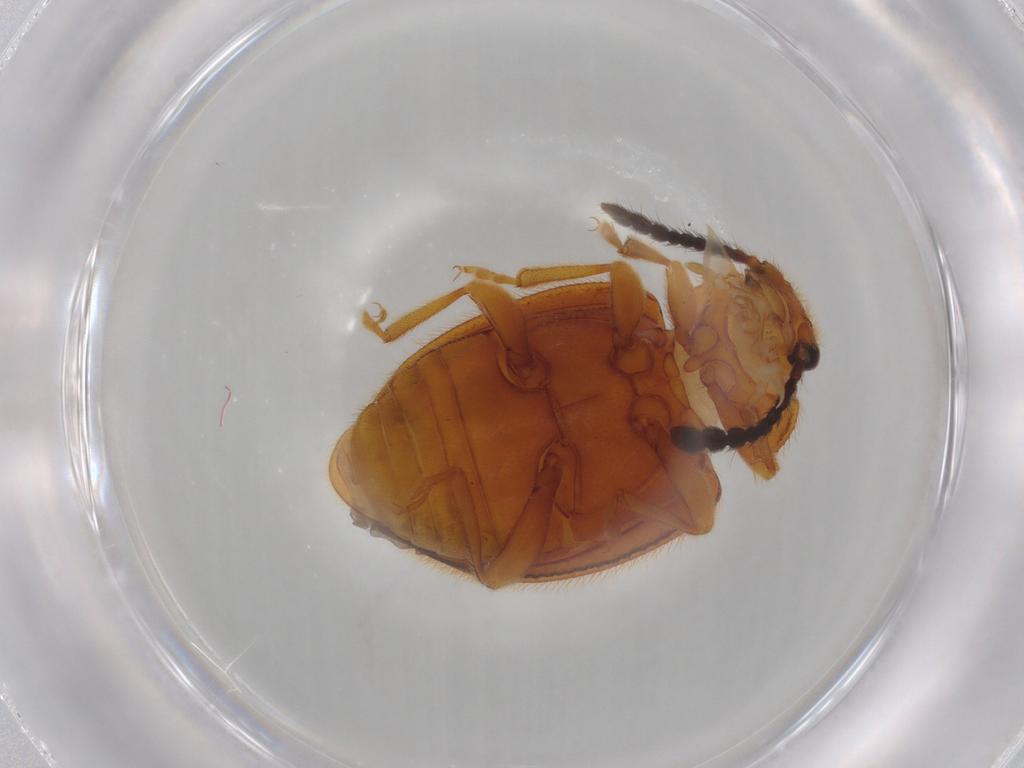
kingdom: Animalia
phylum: Arthropoda
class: Insecta
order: Coleoptera
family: Endomychidae
